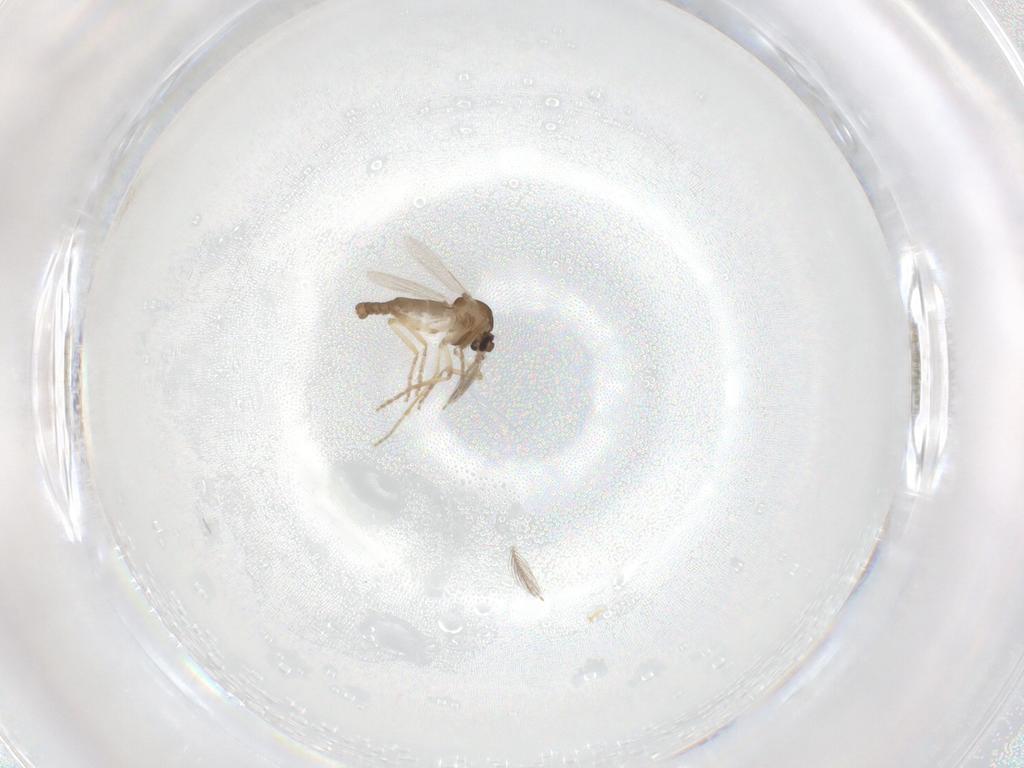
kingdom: Animalia
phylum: Arthropoda
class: Insecta
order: Diptera
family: Ceratopogonidae
